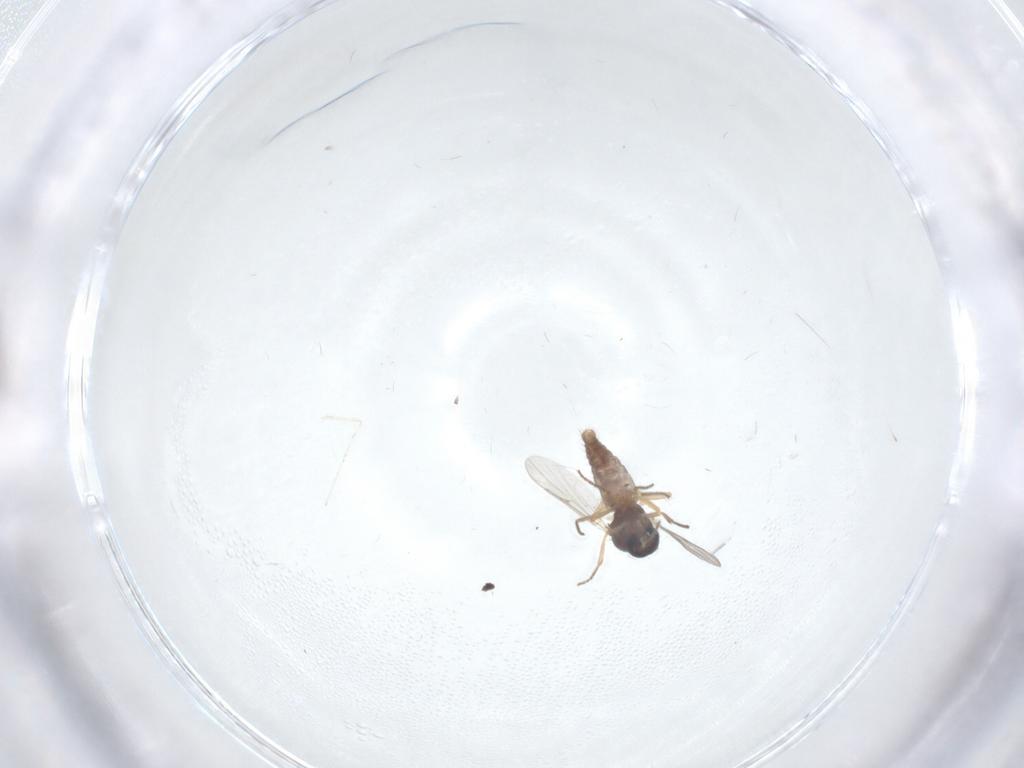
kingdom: Animalia
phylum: Arthropoda
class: Insecta
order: Diptera
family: Ceratopogonidae
